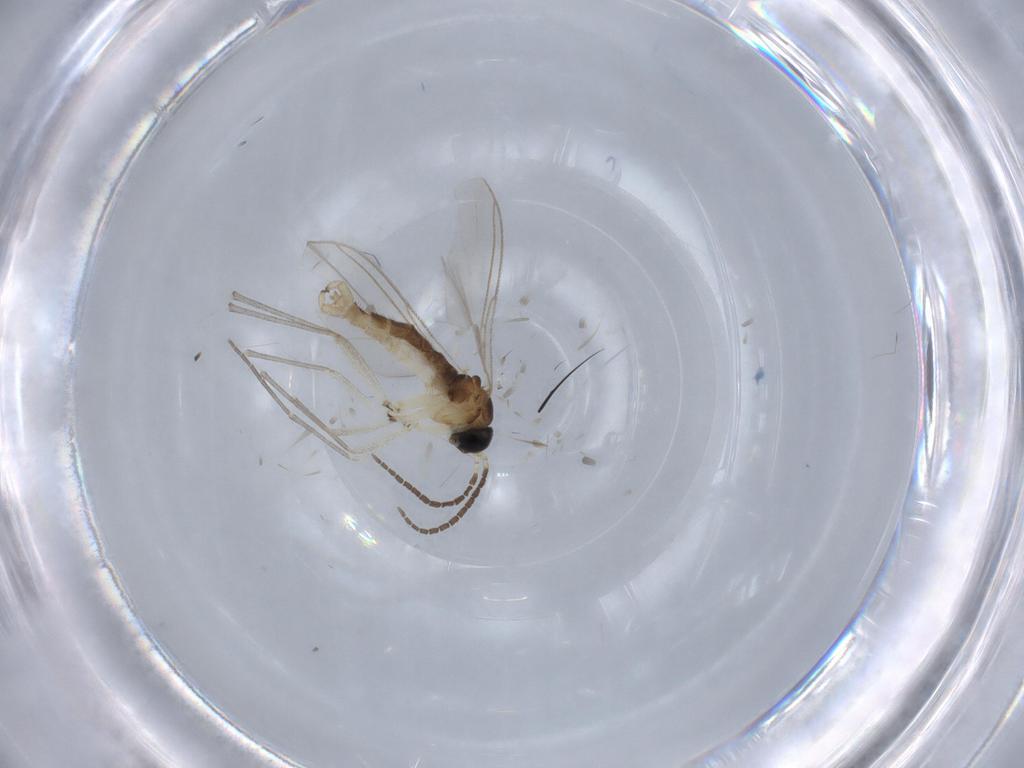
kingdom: Animalia
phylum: Arthropoda
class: Insecta
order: Diptera
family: Sciaridae
